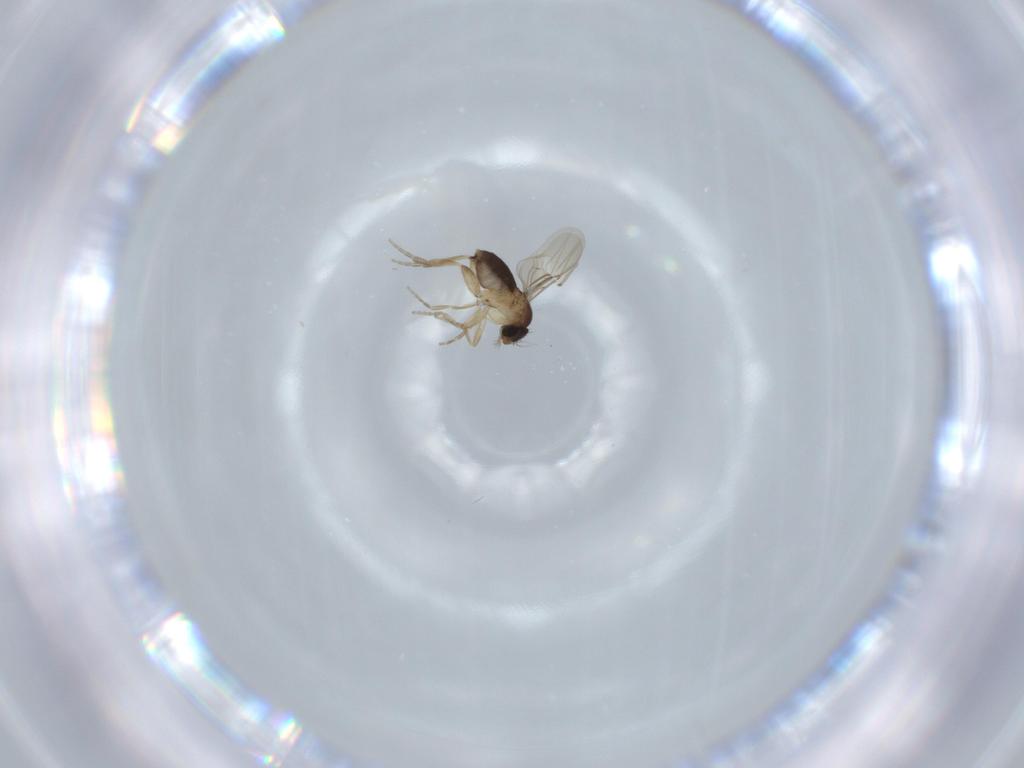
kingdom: Animalia
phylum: Arthropoda
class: Insecta
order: Diptera
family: Phoridae
